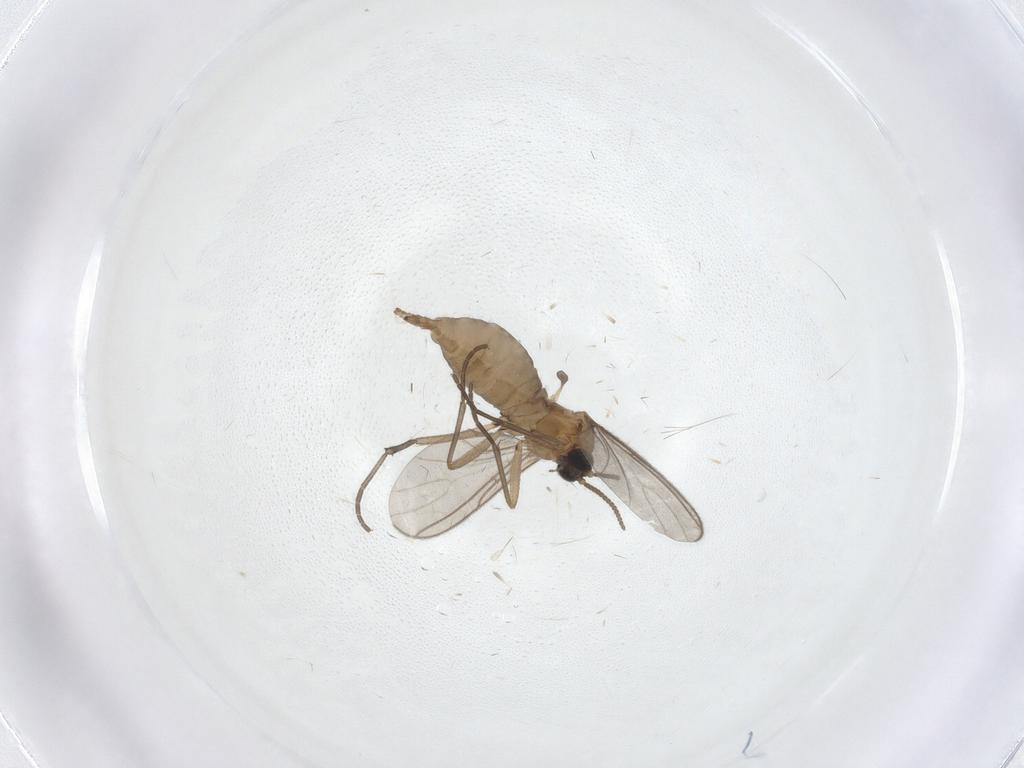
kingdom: Animalia
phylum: Arthropoda
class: Insecta
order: Diptera
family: Sciaridae
